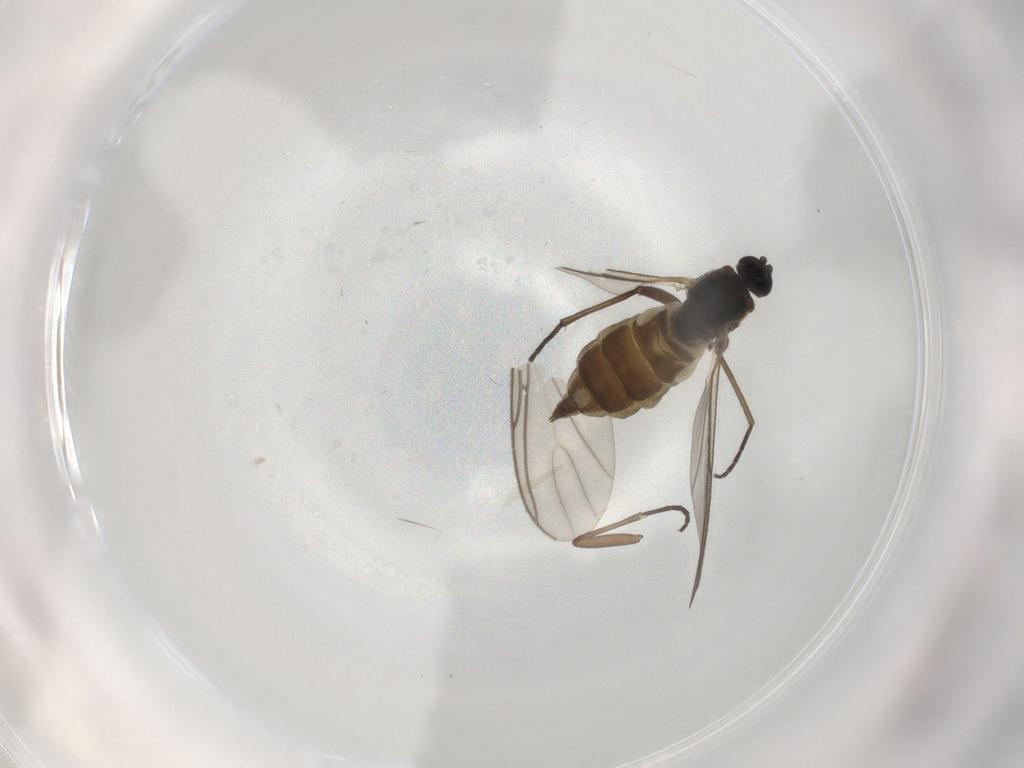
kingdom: Animalia
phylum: Arthropoda
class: Insecta
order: Diptera
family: Sciaridae
